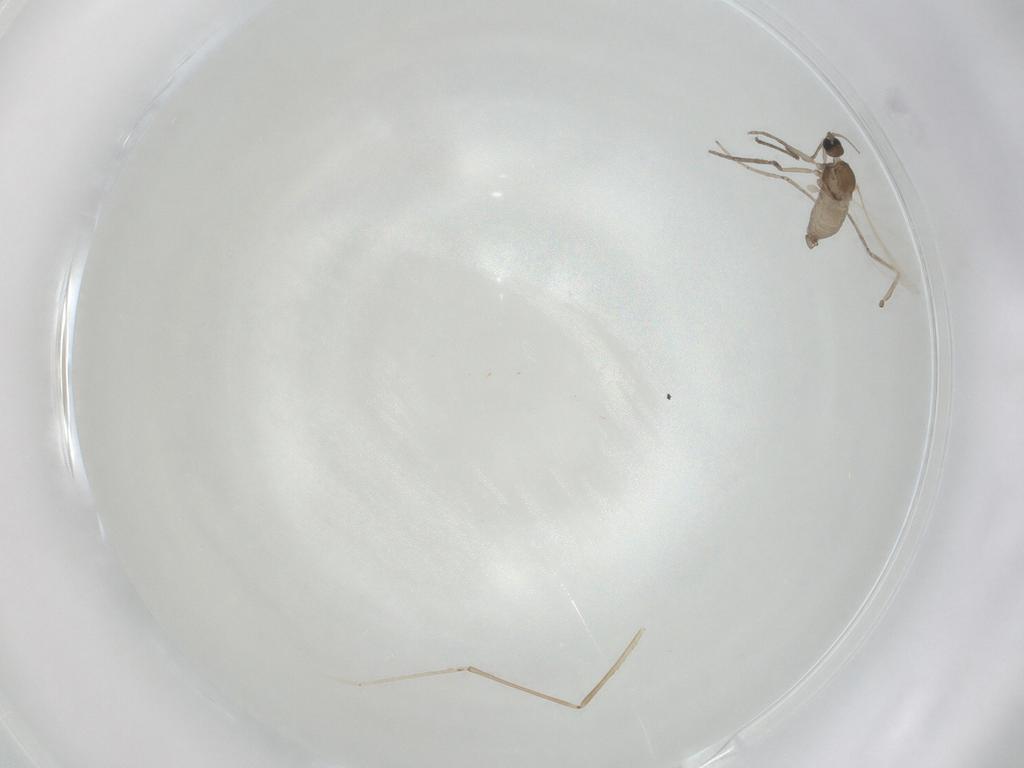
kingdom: Animalia
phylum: Arthropoda
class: Insecta
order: Diptera
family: Cecidomyiidae
